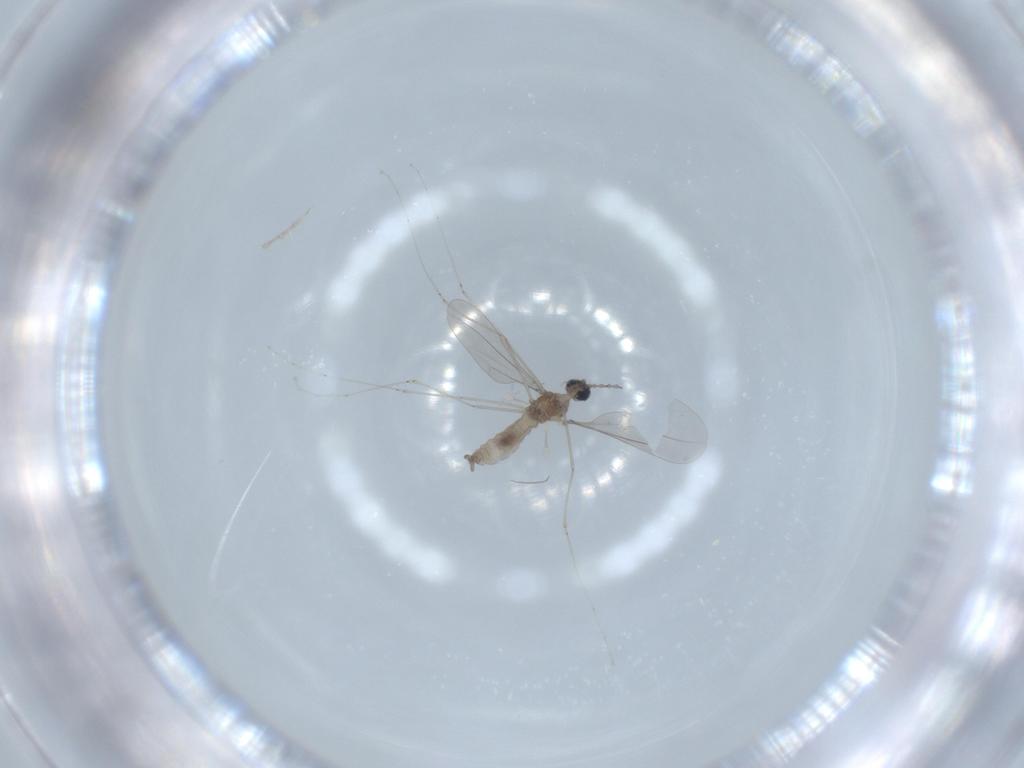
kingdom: Animalia
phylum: Arthropoda
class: Insecta
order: Diptera
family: Cecidomyiidae
